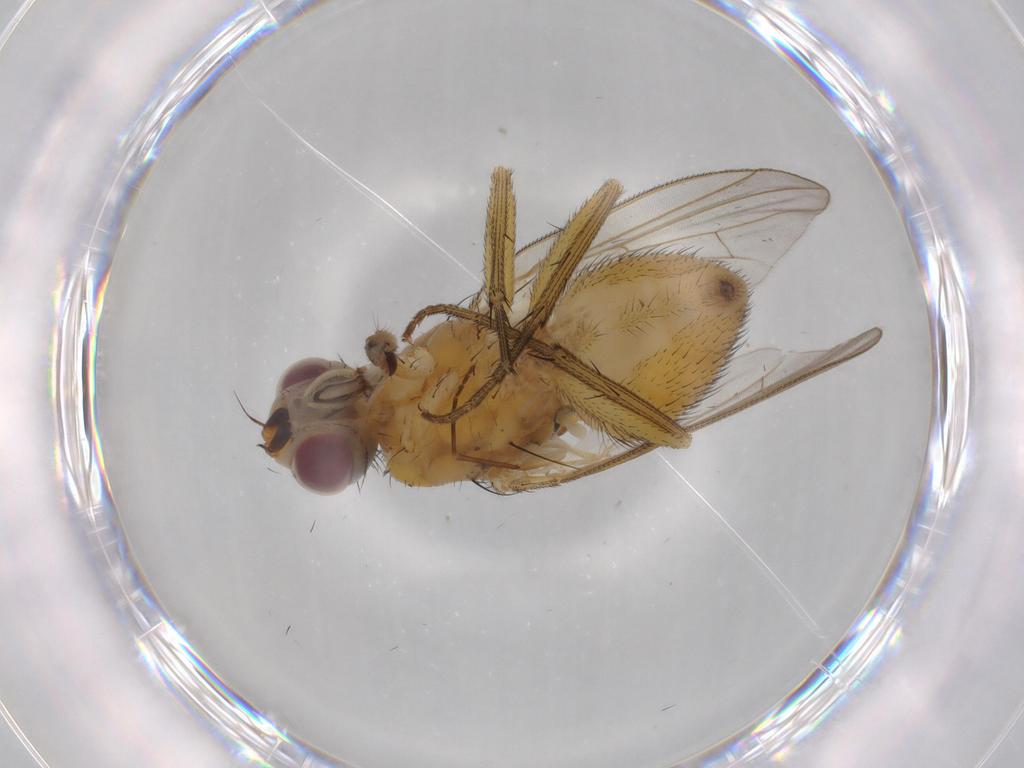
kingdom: Animalia
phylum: Arthropoda
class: Insecta
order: Diptera
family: Muscidae
